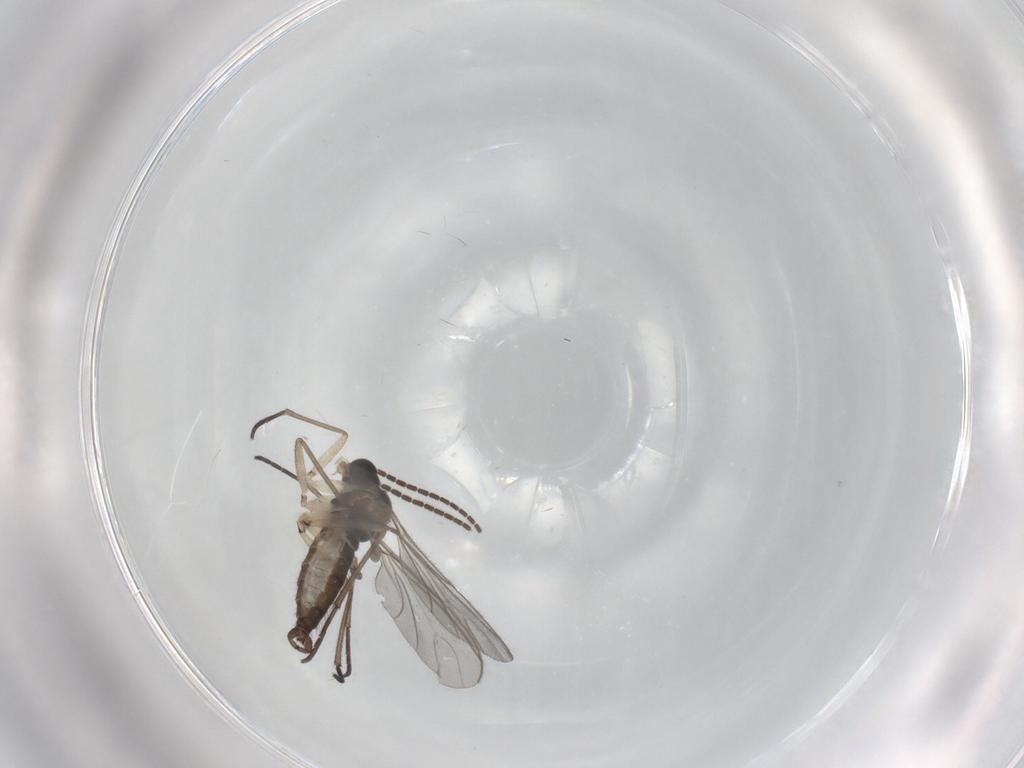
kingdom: Animalia
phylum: Arthropoda
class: Insecta
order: Diptera
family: Sciaridae
